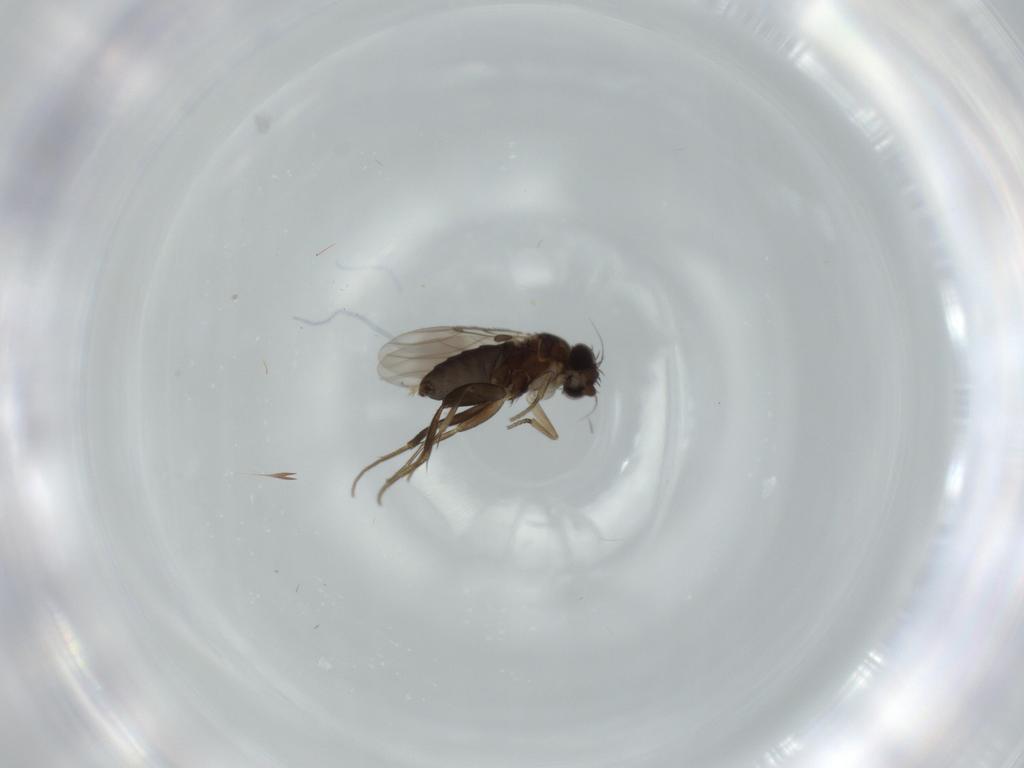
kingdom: Animalia
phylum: Arthropoda
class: Insecta
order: Diptera
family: Phoridae
